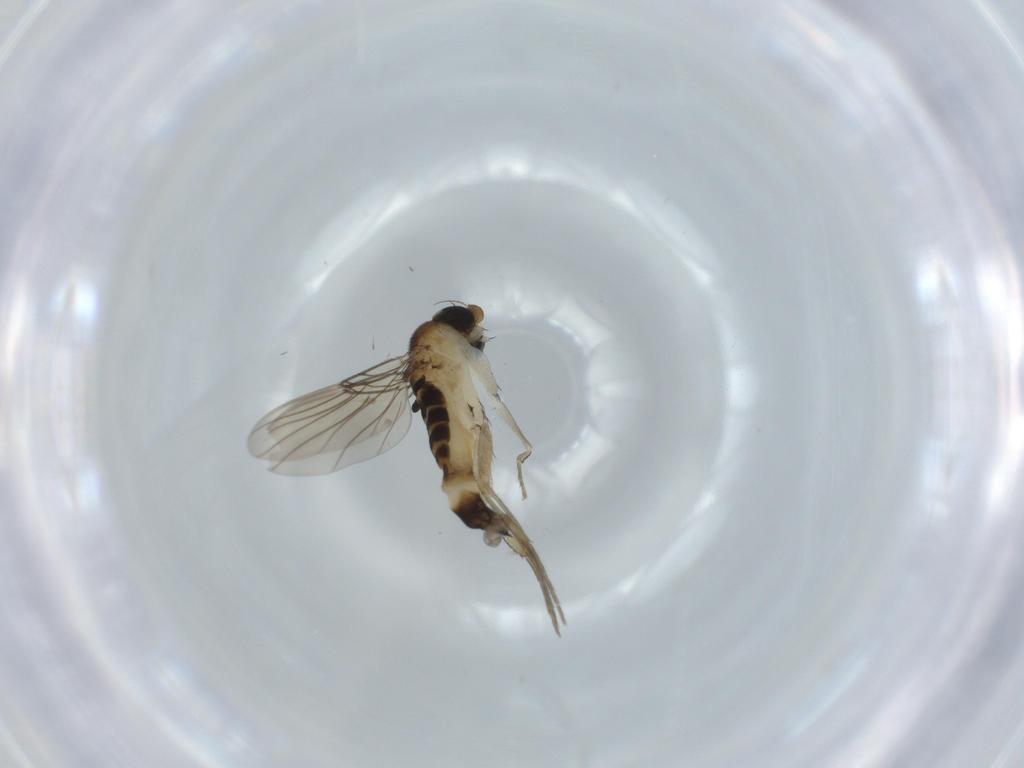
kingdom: Animalia
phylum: Arthropoda
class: Insecta
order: Diptera
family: Phoridae
